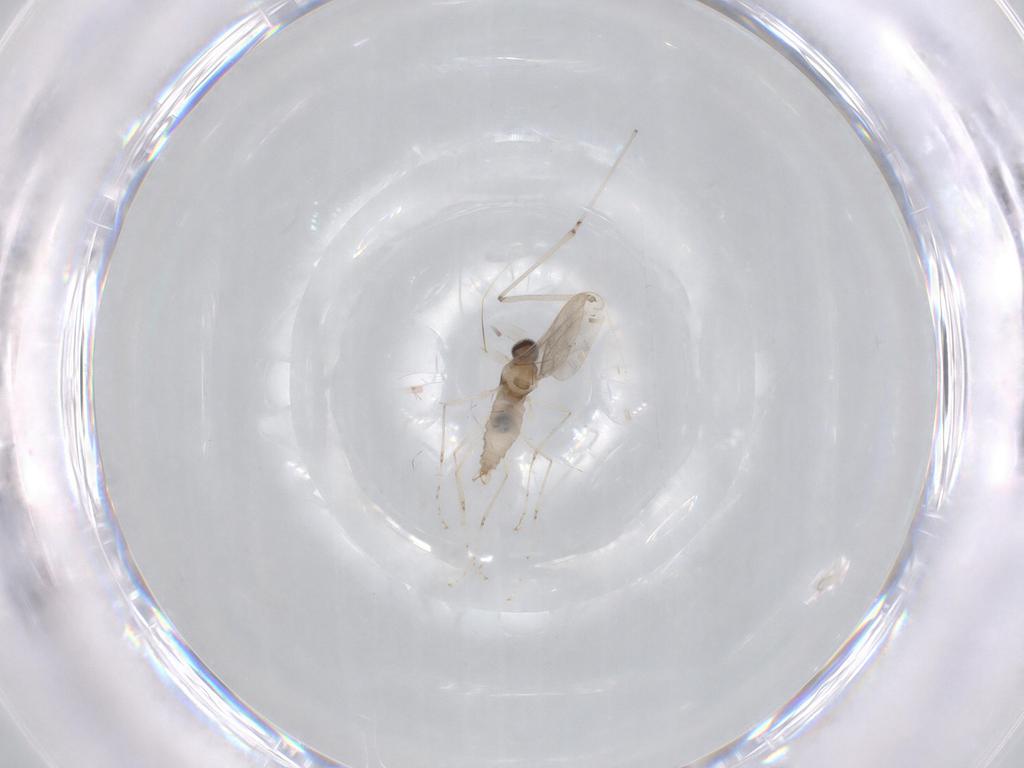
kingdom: Animalia
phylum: Arthropoda
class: Insecta
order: Diptera
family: Cecidomyiidae
